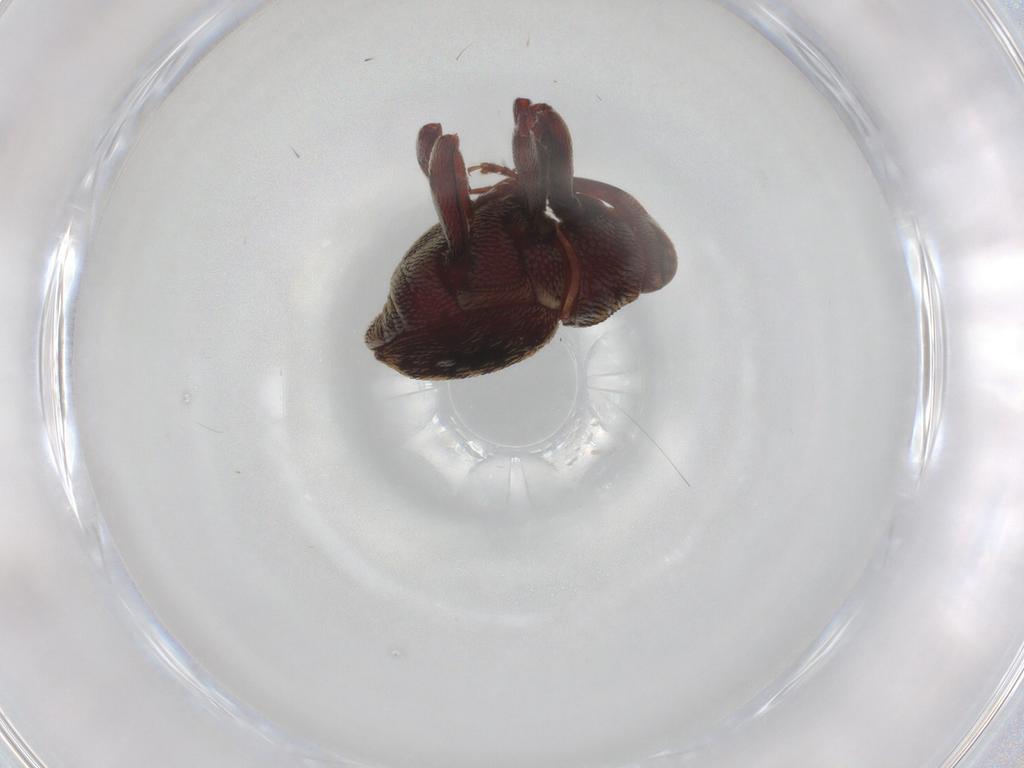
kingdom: Animalia
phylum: Arthropoda
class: Insecta
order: Coleoptera
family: Curculionidae
